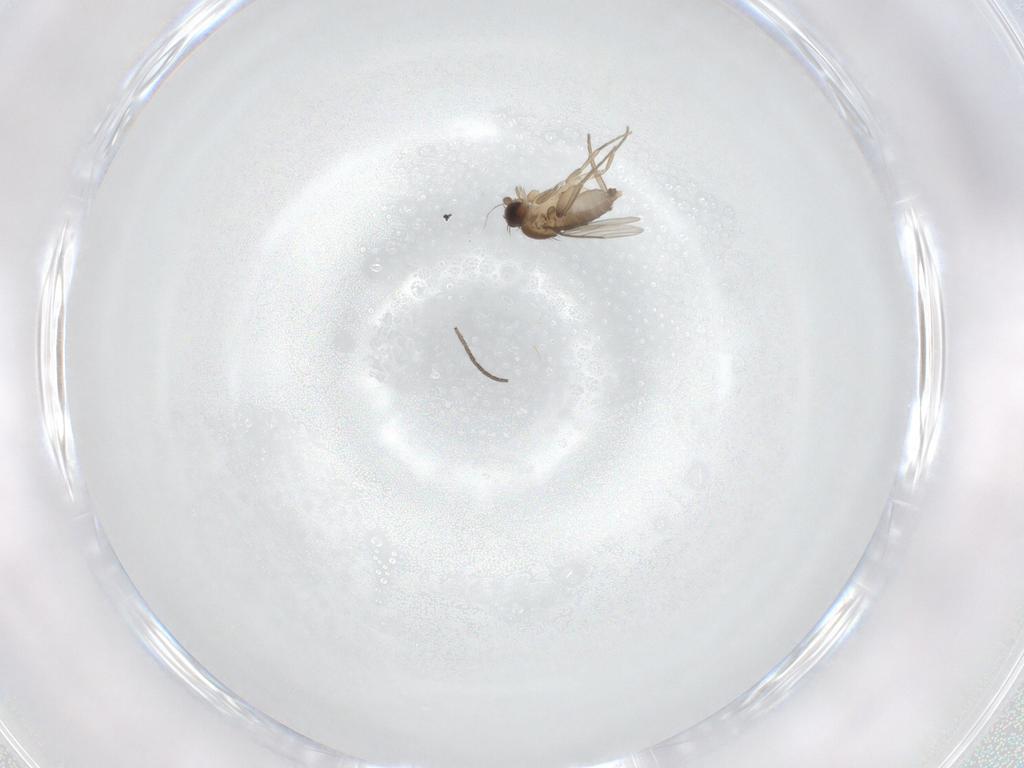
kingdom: Animalia
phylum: Arthropoda
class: Insecta
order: Diptera
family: Phoridae
